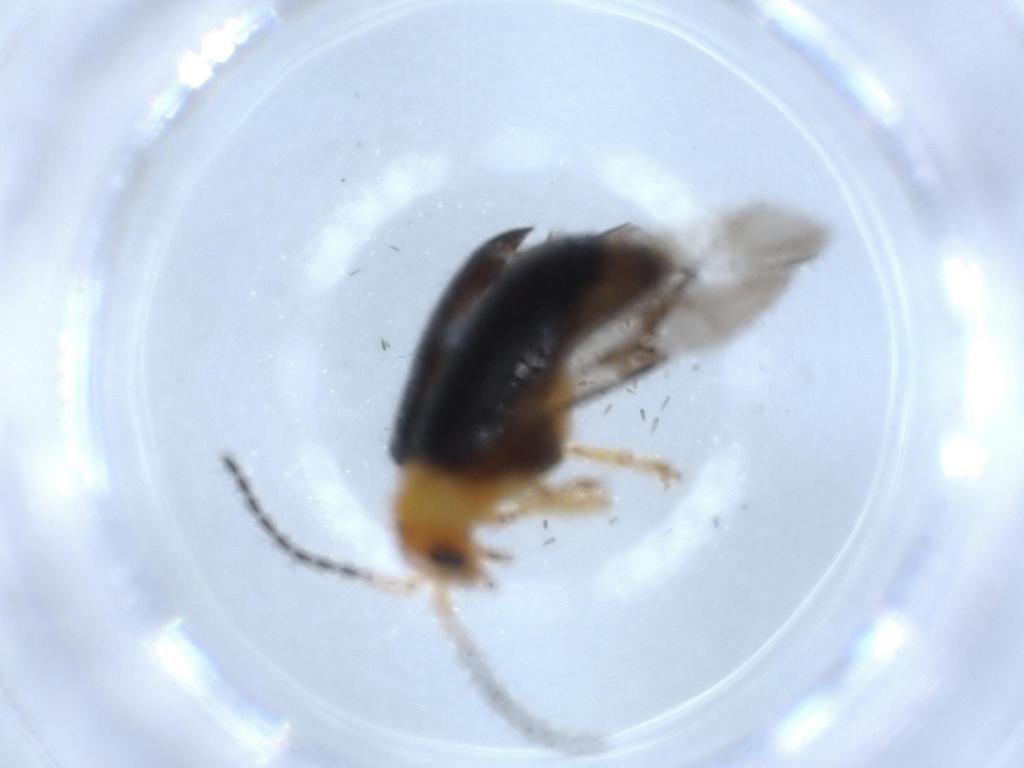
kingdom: Animalia
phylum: Arthropoda
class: Insecta
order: Coleoptera
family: Chrysomelidae
